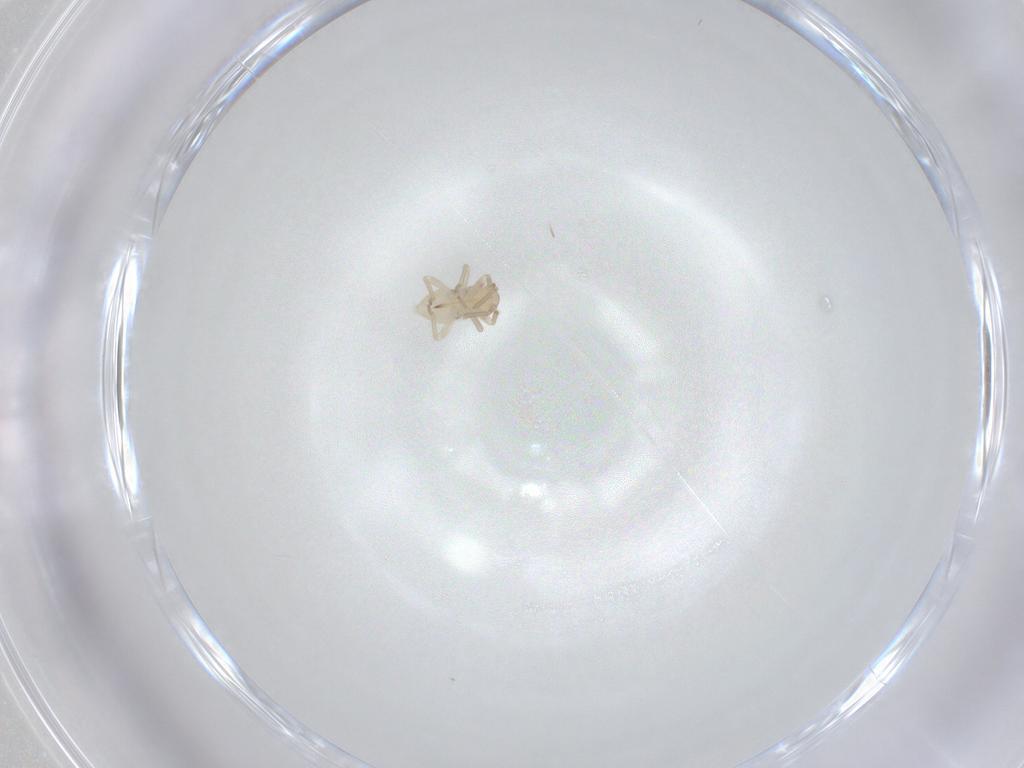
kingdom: Animalia
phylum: Arthropoda
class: Insecta
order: Hemiptera
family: Miridae
